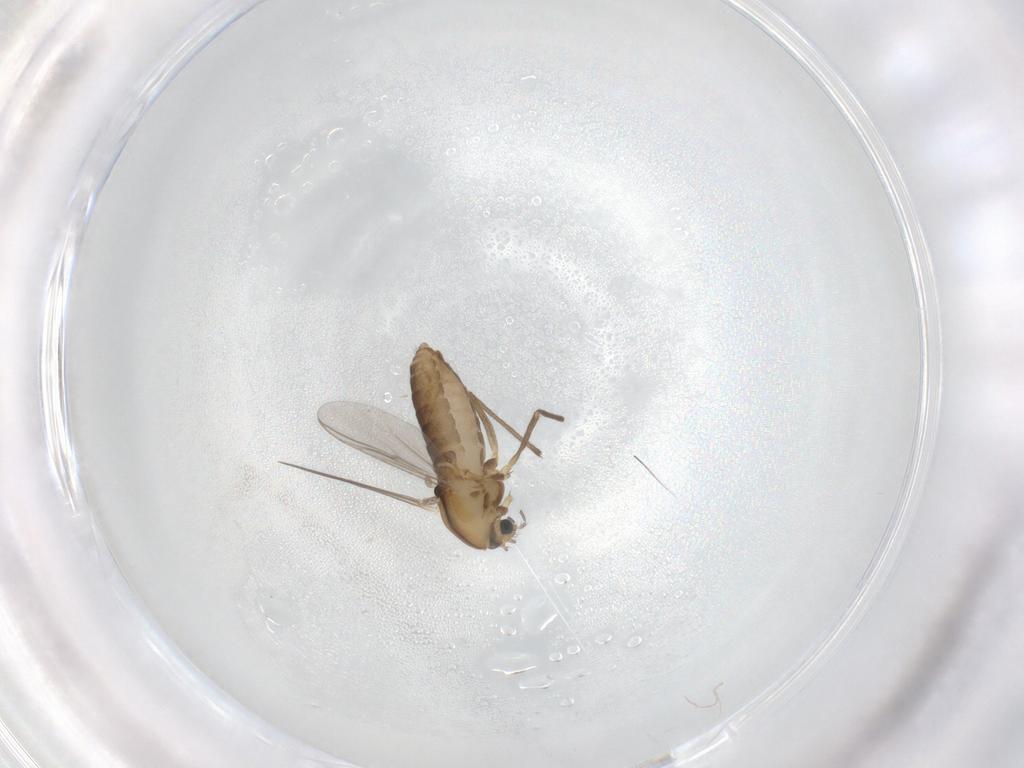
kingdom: Animalia
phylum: Arthropoda
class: Insecta
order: Diptera
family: Chironomidae
